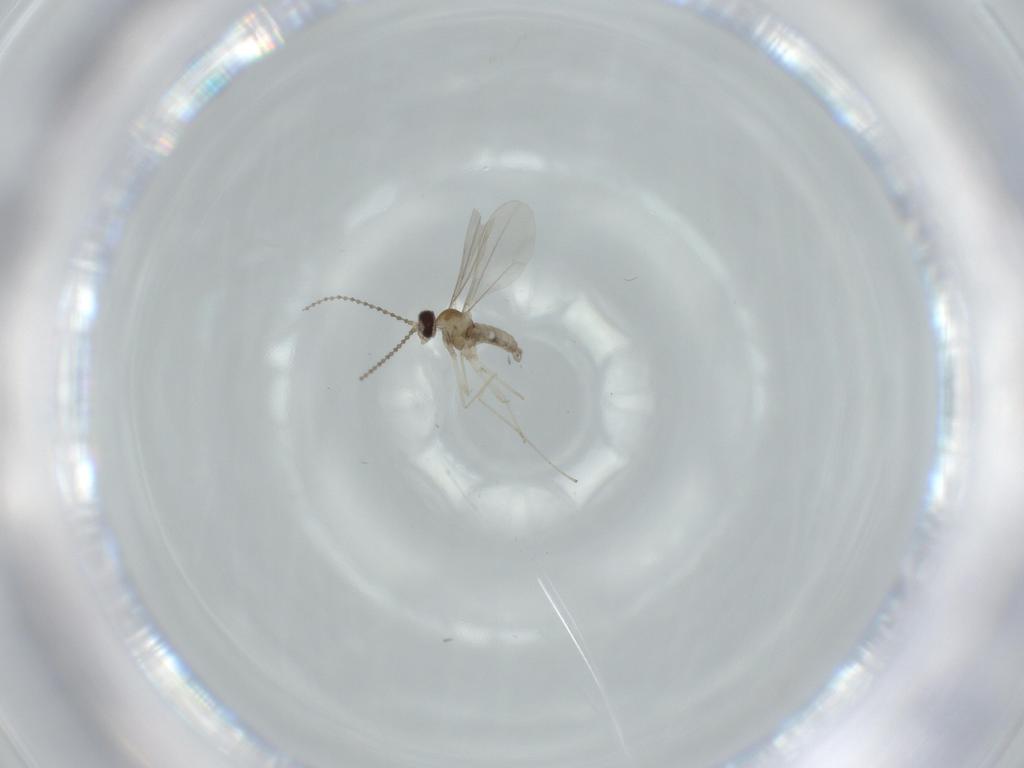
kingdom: Animalia
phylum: Arthropoda
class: Insecta
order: Diptera
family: Cecidomyiidae
